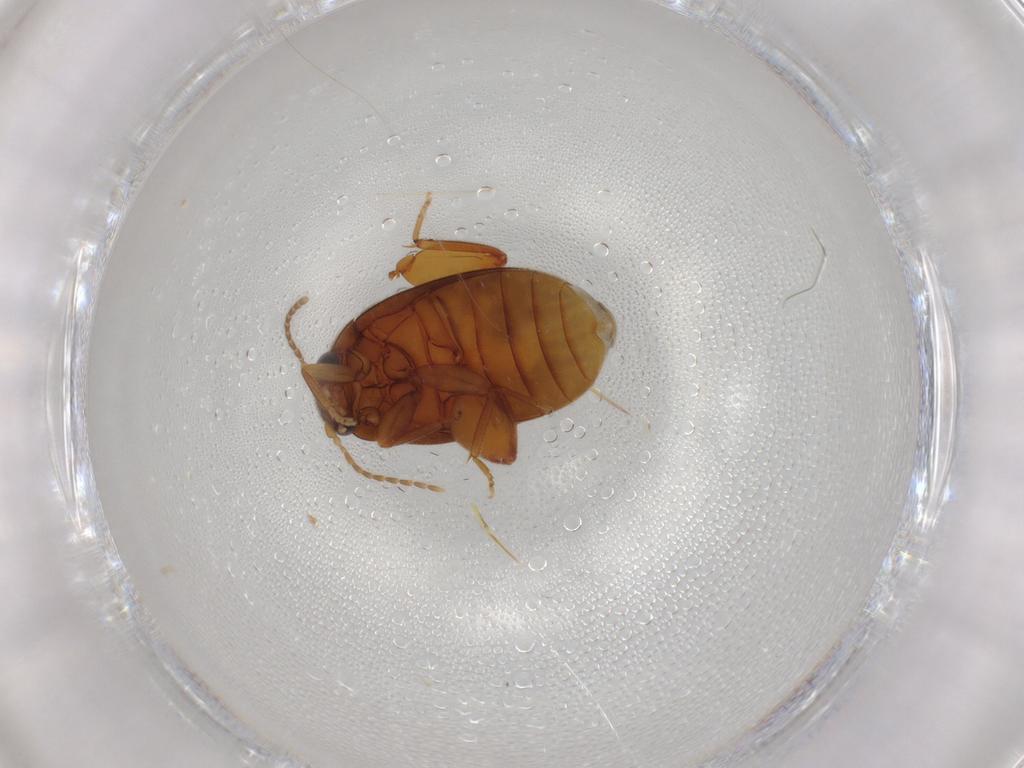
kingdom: Animalia
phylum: Arthropoda
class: Insecta
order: Coleoptera
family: Scirtidae
